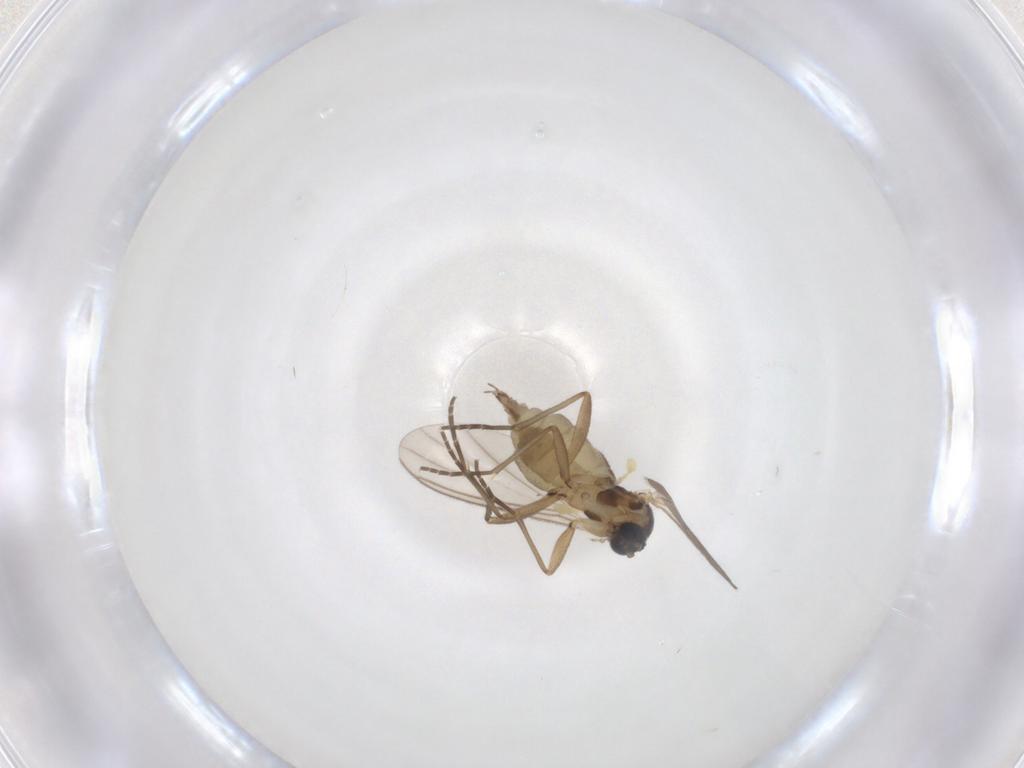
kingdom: Animalia
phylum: Arthropoda
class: Insecta
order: Diptera
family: Sciaridae
